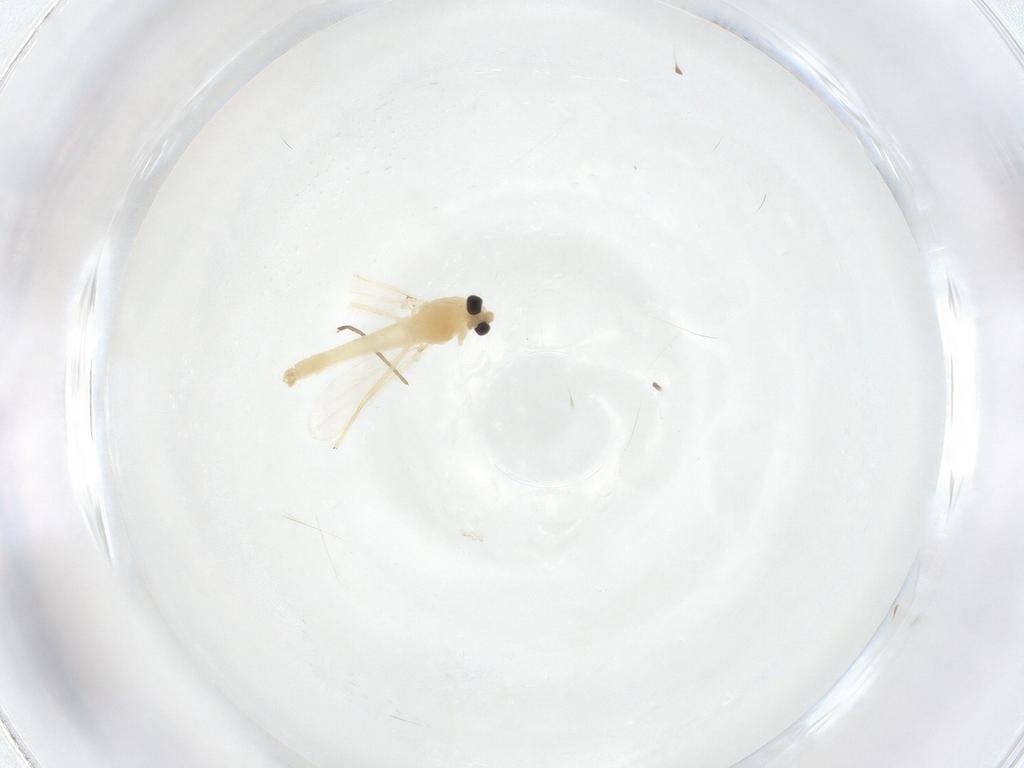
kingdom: Animalia
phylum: Arthropoda
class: Insecta
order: Diptera
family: Chironomidae
